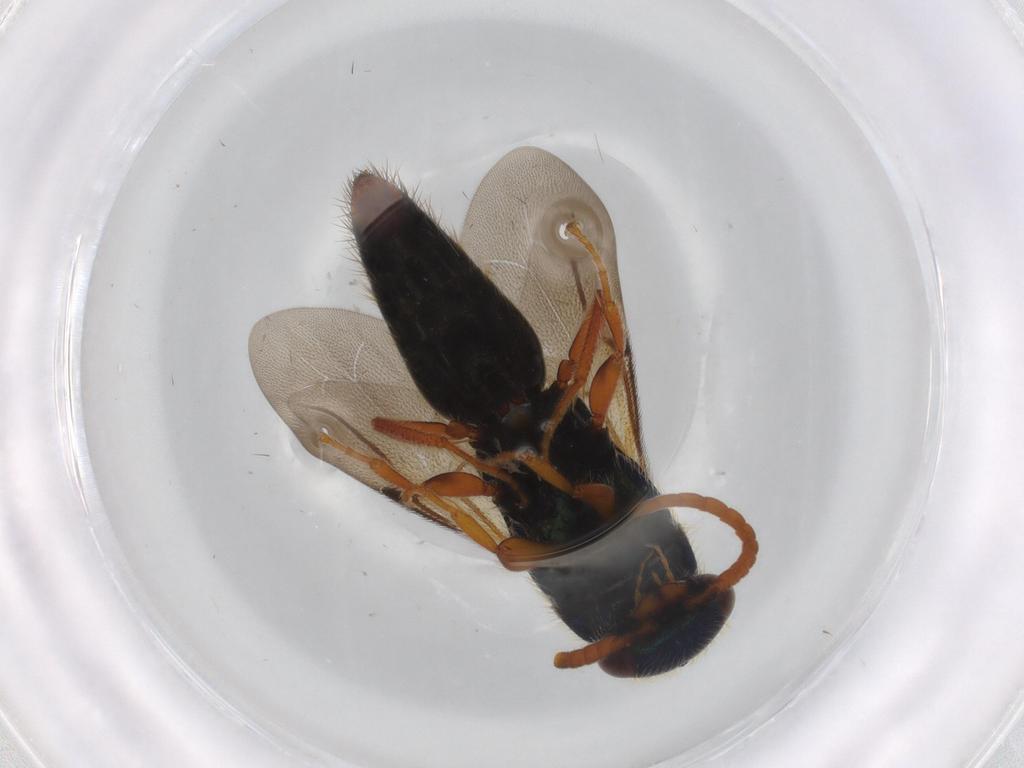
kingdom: Animalia
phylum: Arthropoda
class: Insecta
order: Hymenoptera
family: Bethylidae
